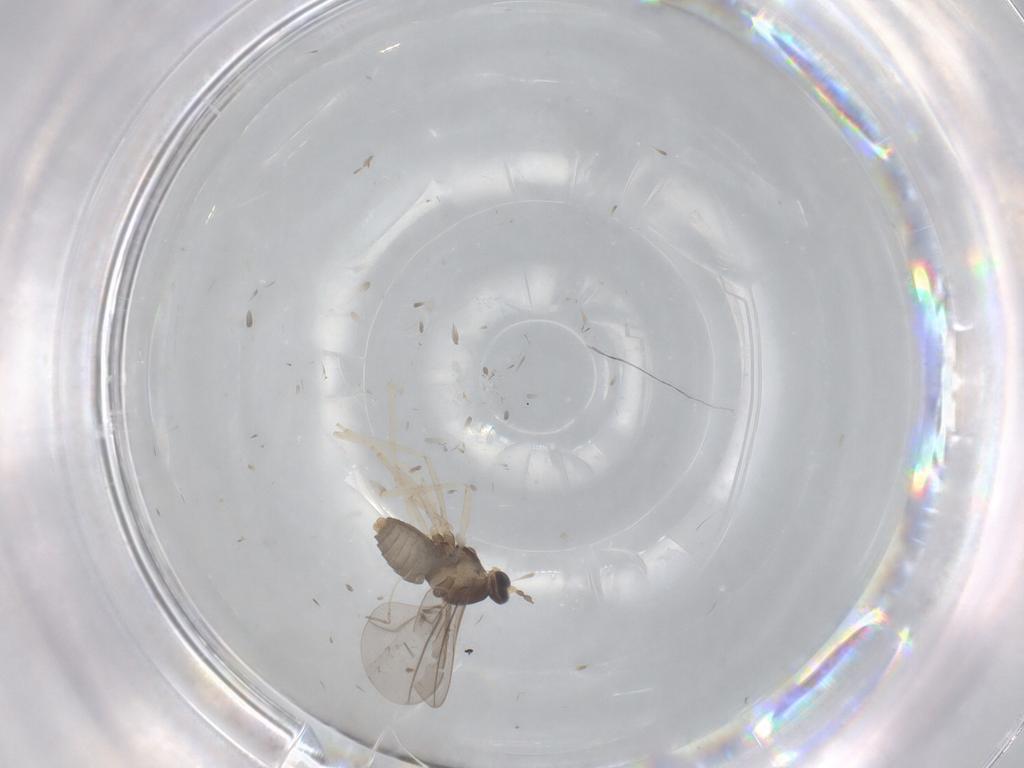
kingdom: Animalia
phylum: Arthropoda
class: Insecta
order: Diptera
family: Cecidomyiidae
